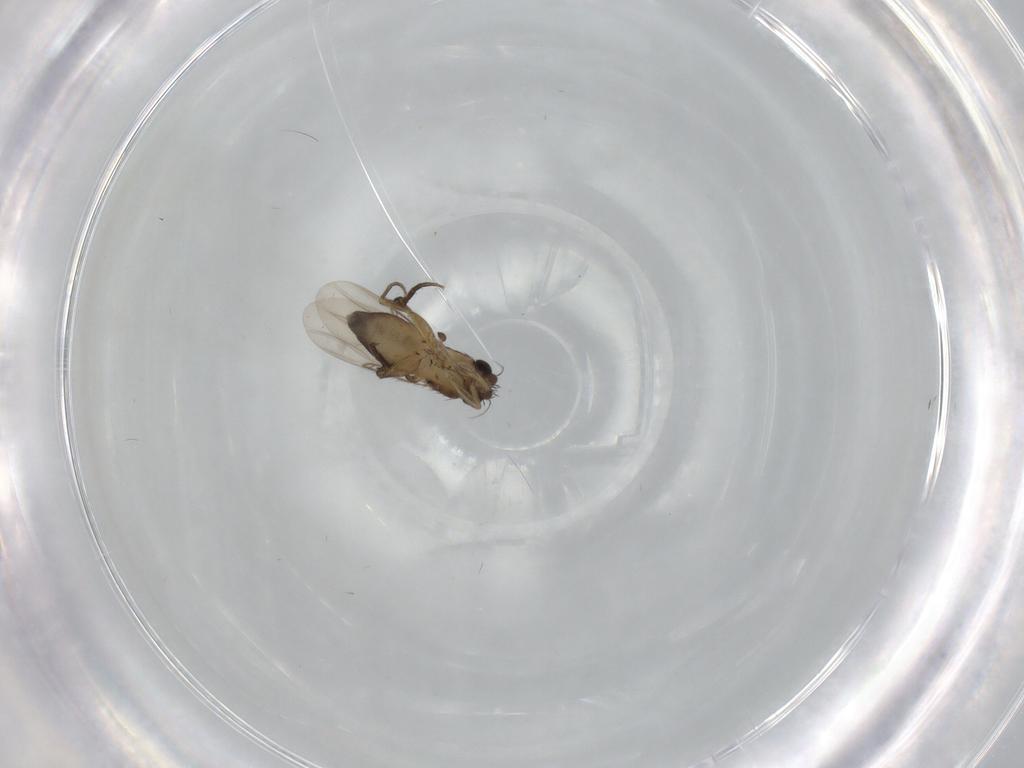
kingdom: Animalia
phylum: Arthropoda
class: Insecta
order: Diptera
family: Phoridae
